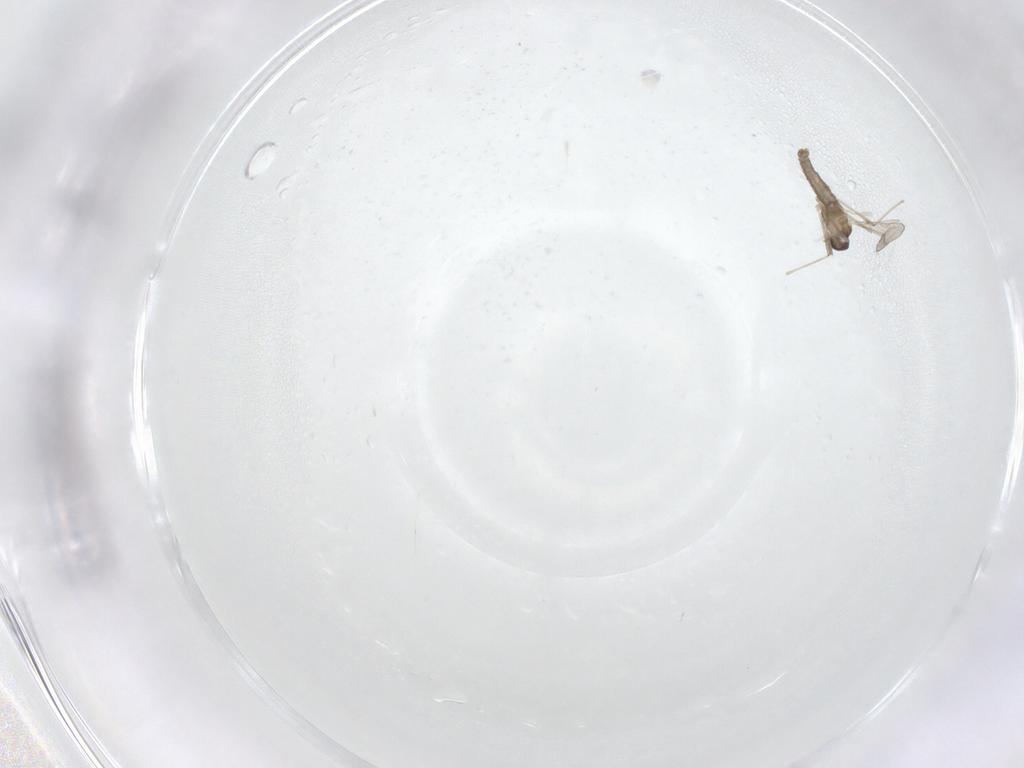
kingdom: Animalia
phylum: Arthropoda
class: Insecta
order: Diptera
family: Cecidomyiidae
